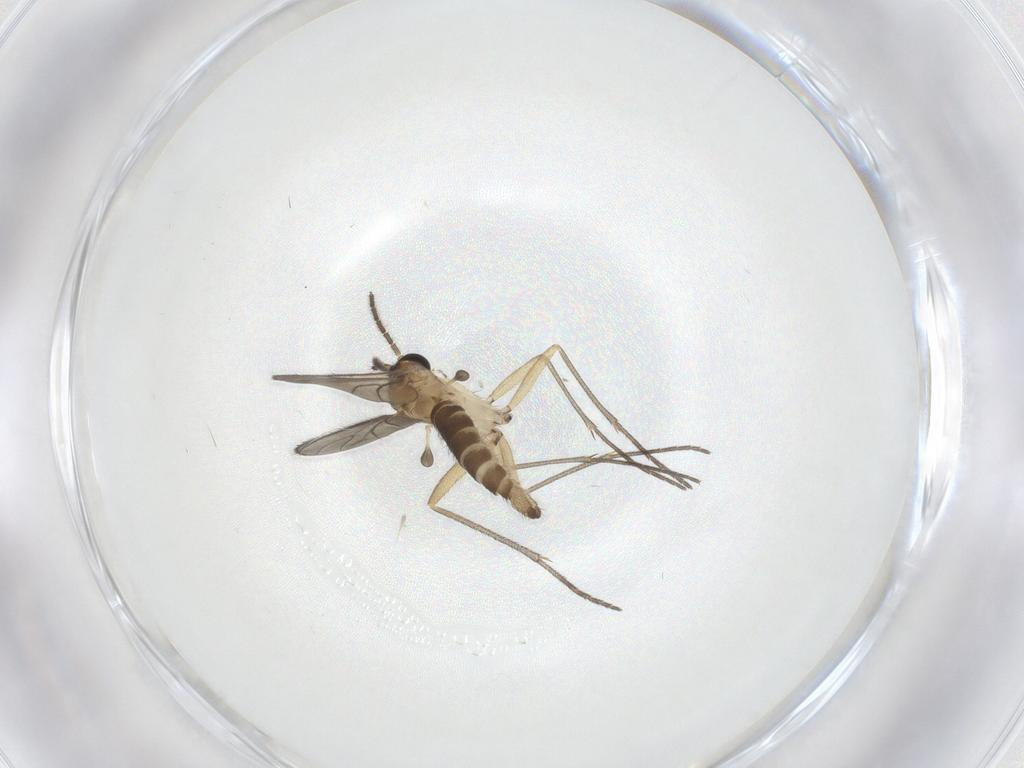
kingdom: Animalia
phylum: Arthropoda
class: Insecta
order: Diptera
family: Sciaridae
